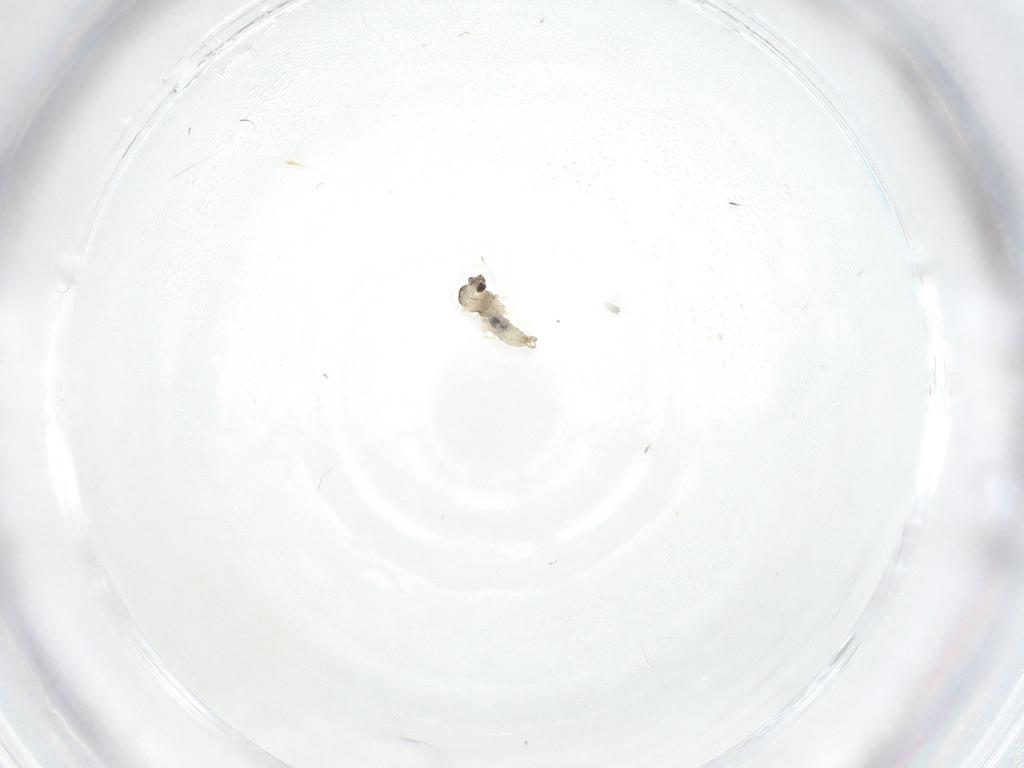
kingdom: Animalia
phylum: Arthropoda
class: Insecta
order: Diptera
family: Cecidomyiidae
